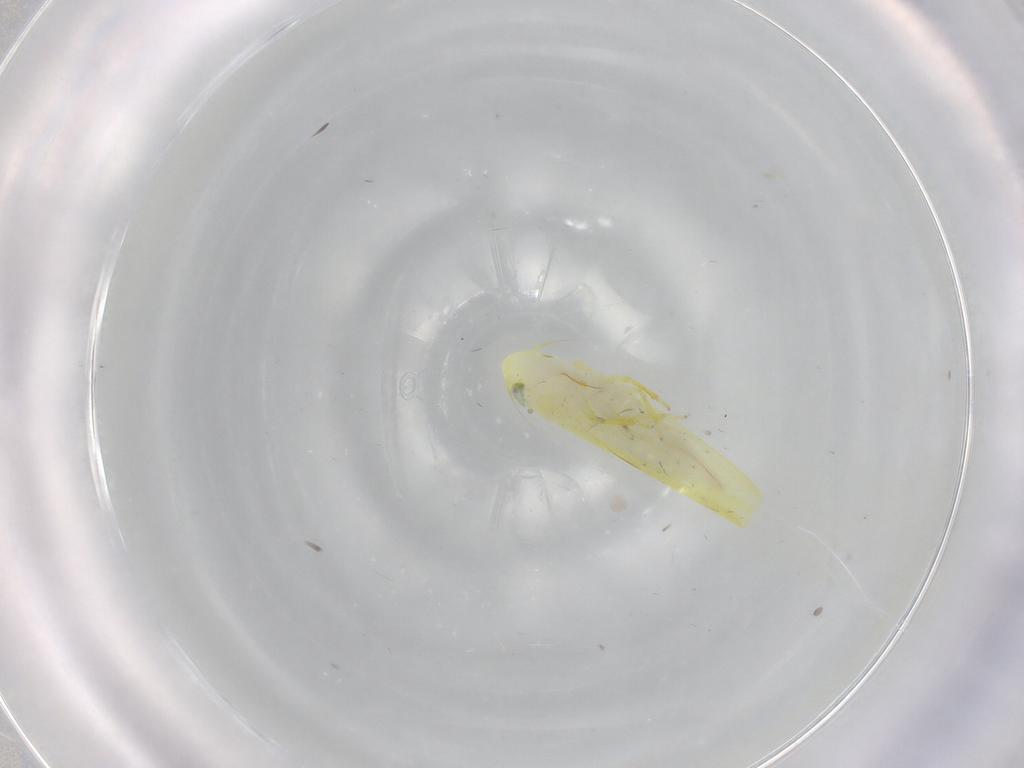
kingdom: Animalia
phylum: Arthropoda
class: Insecta
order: Hemiptera
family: Cicadellidae
